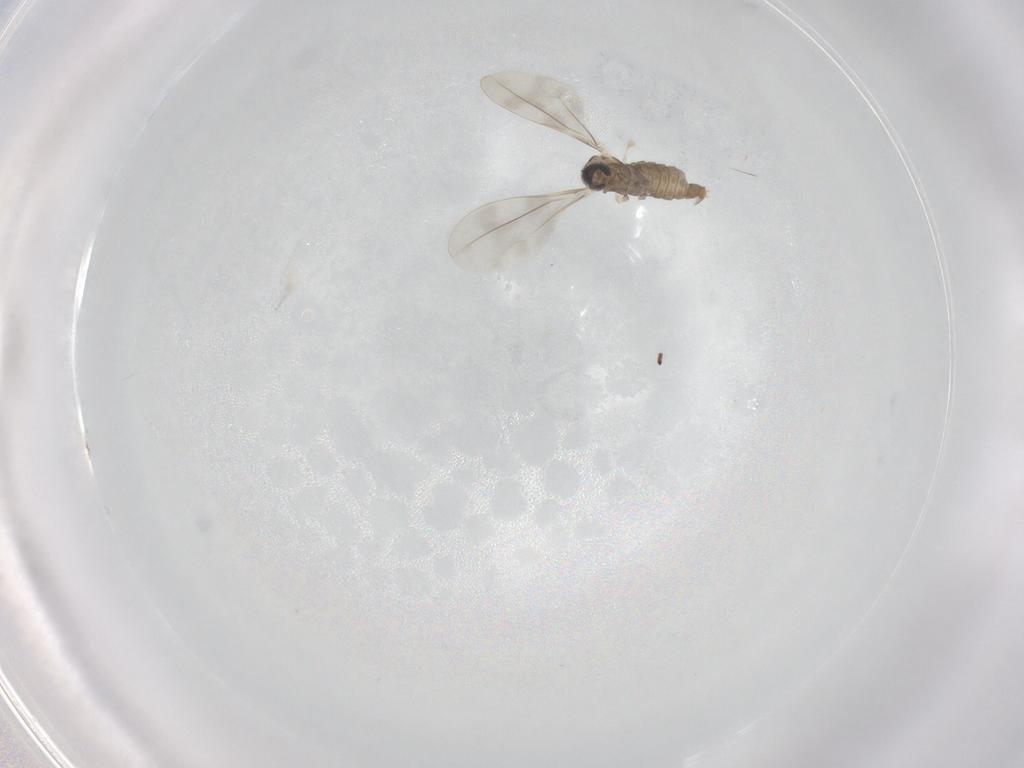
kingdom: Animalia
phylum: Arthropoda
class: Insecta
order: Diptera
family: Cecidomyiidae
